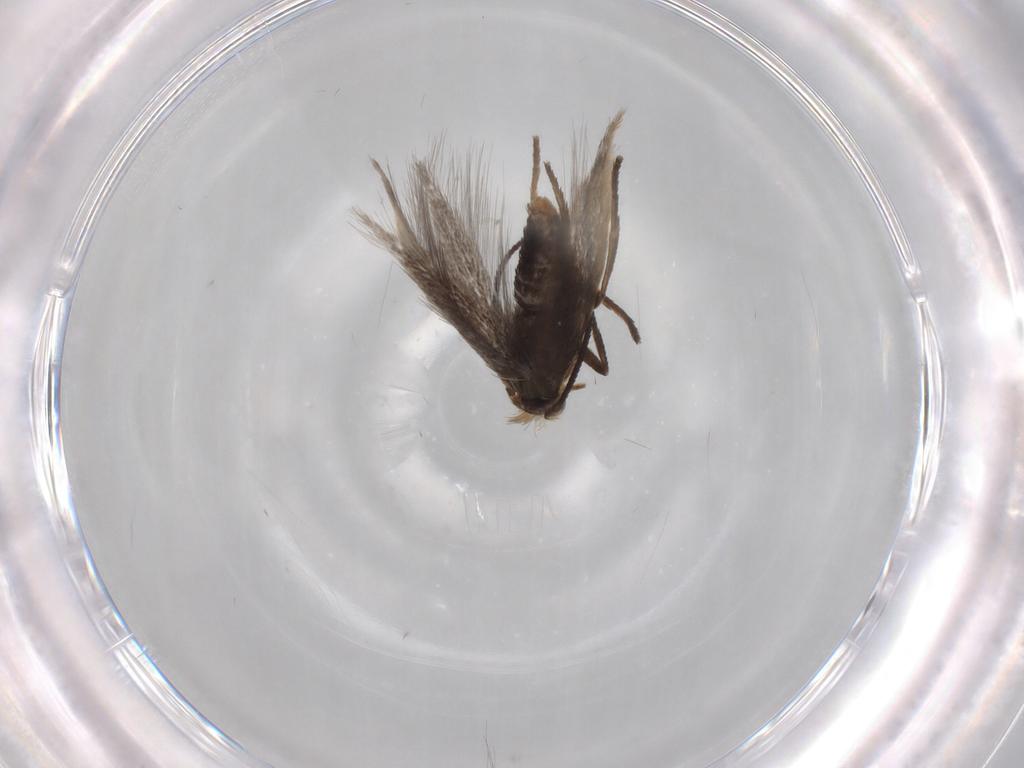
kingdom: Animalia
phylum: Arthropoda
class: Insecta
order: Lepidoptera
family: Nepticulidae
